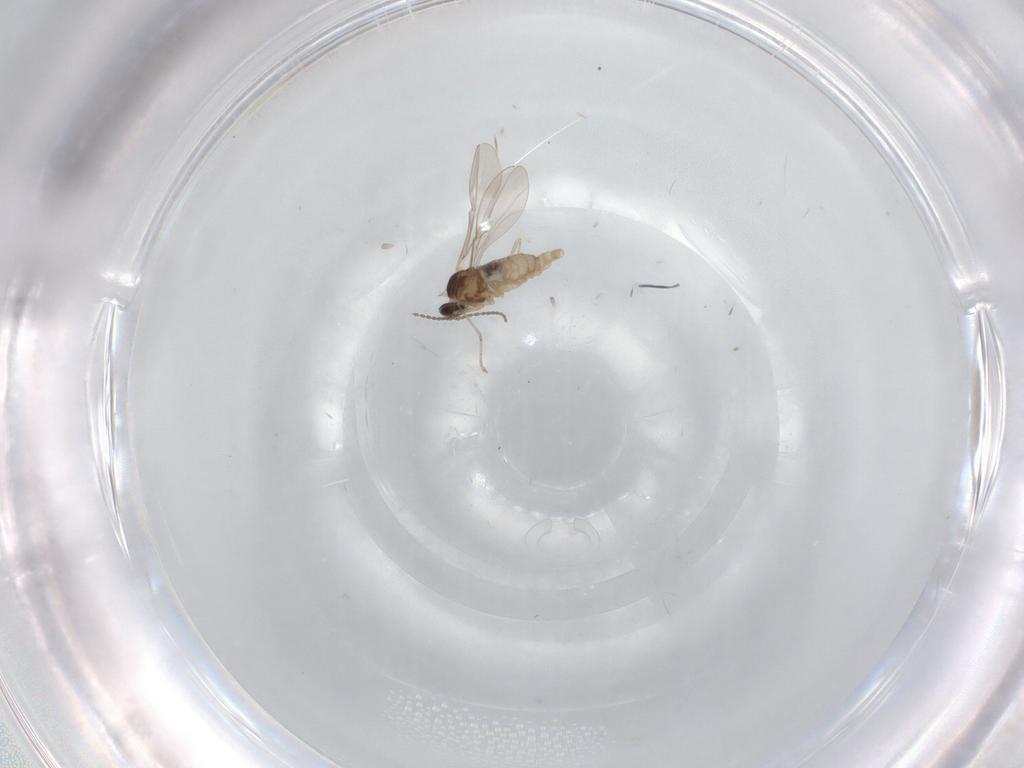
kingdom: Animalia
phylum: Arthropoda
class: Insecta
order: Diptera
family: Cecidomyiidae
